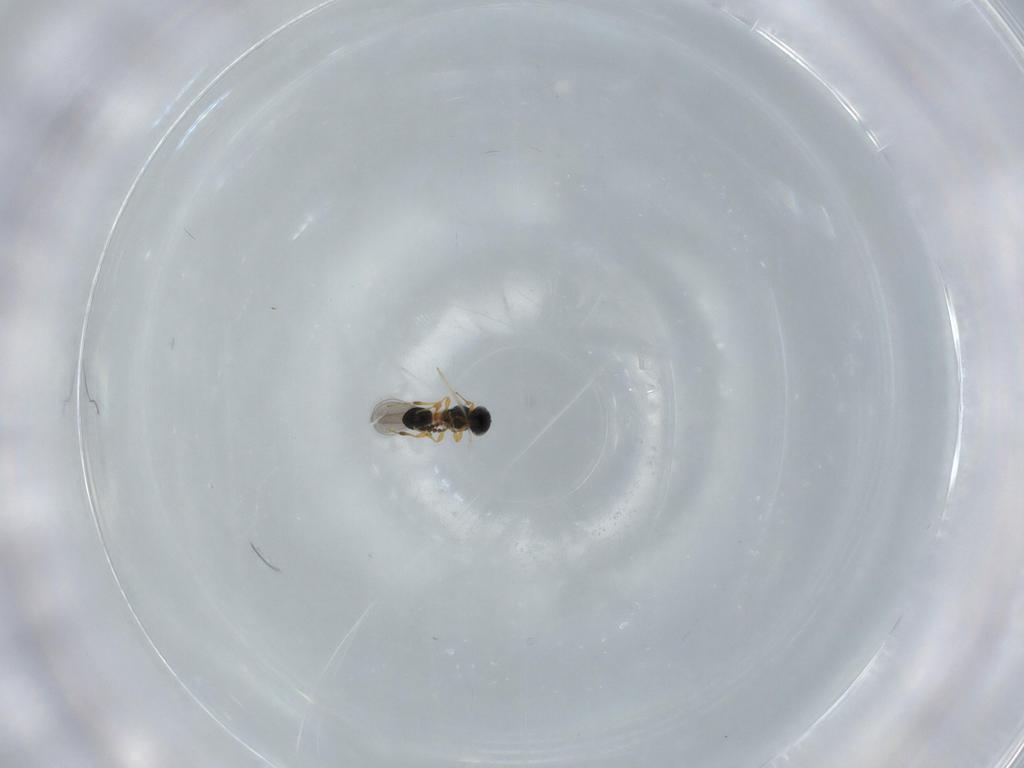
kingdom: Animalia
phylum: Arthropoda
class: Insecta
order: Hymenoptera
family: Platygastridae
